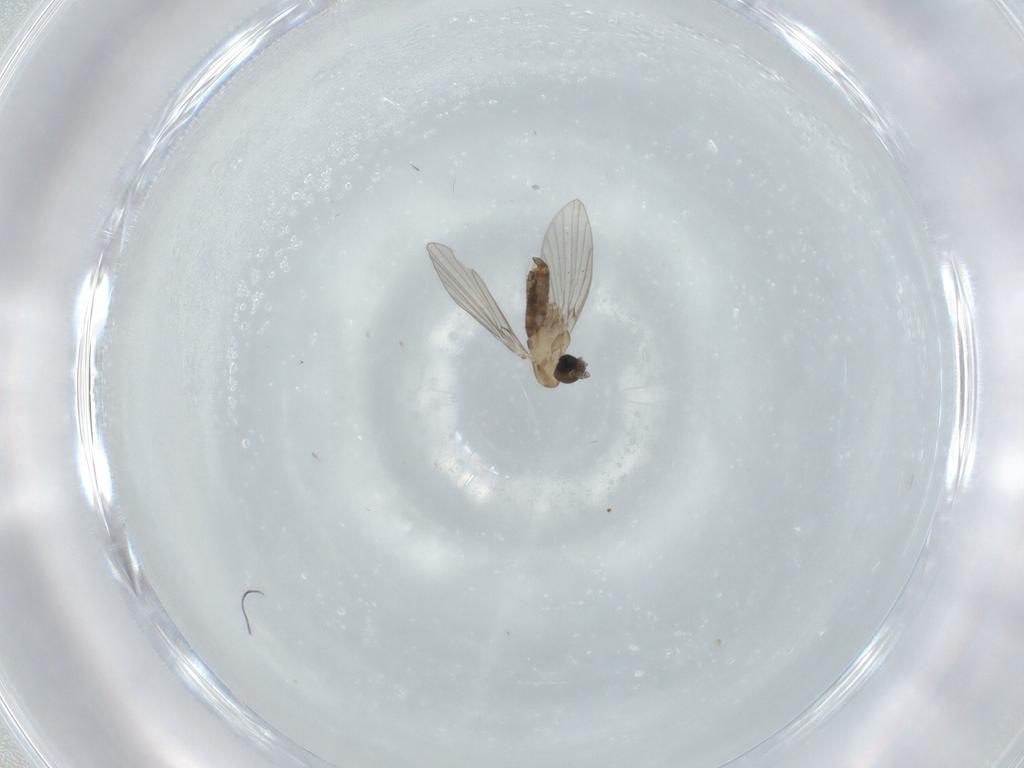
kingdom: Animalia
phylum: Arthropoda
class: Insecta
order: Diptera
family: Psychodidae
